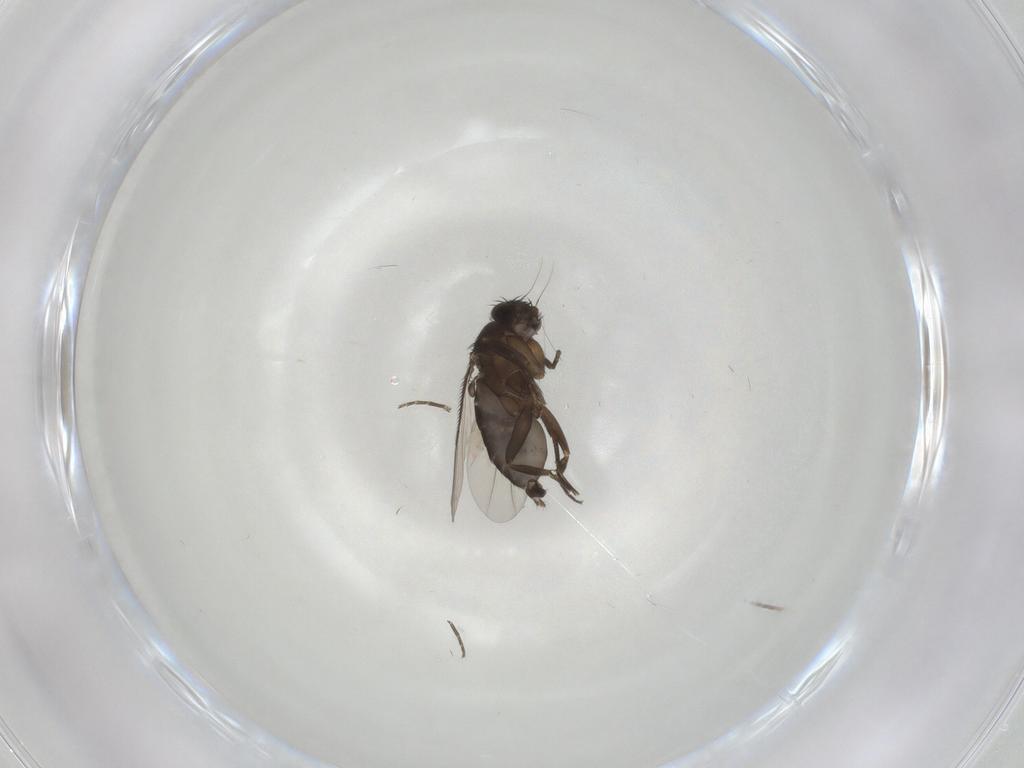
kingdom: Animalia
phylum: Arthropoda
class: Insecta
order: Diptera
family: Phoridae
